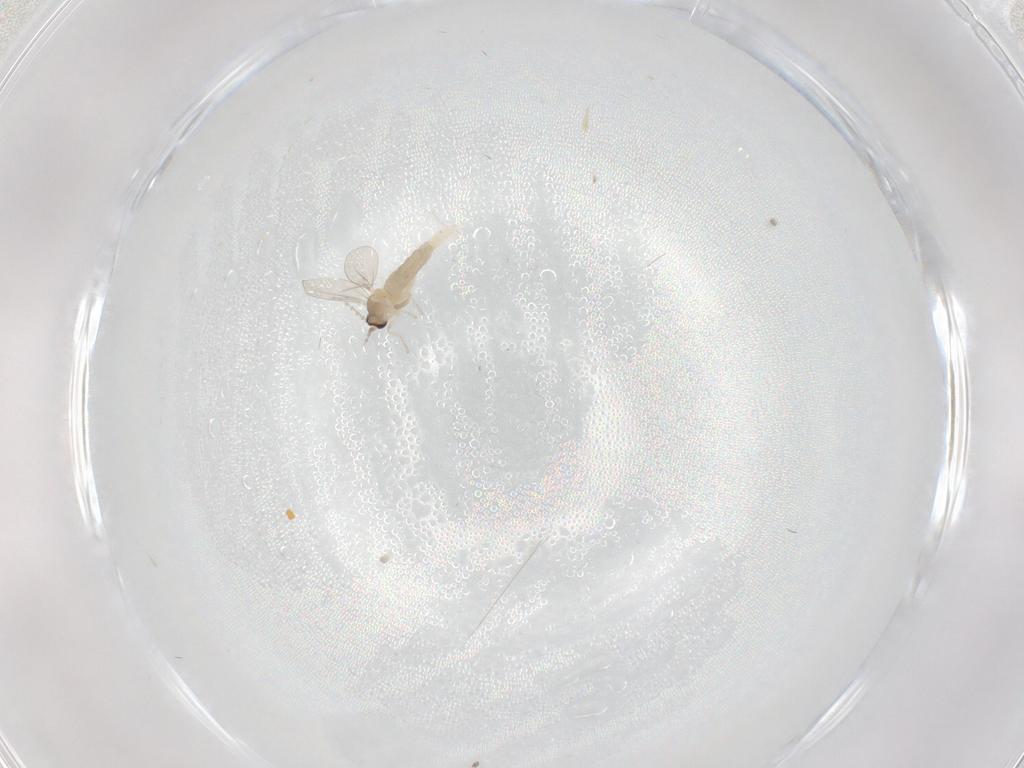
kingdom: Animalia
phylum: Arthropoda
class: Insecta
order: Diptera
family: Cecidomyiidae
